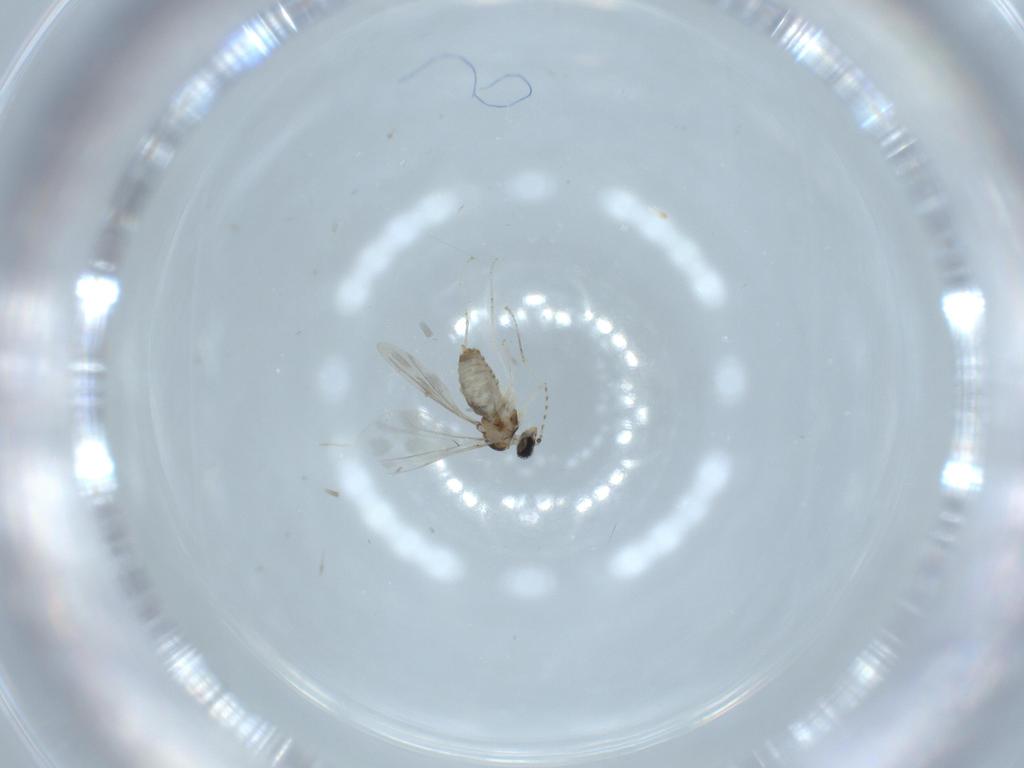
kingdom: Animalia
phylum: Arthropoda
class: Insecta
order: Diptera
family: Cecidomyiidae
